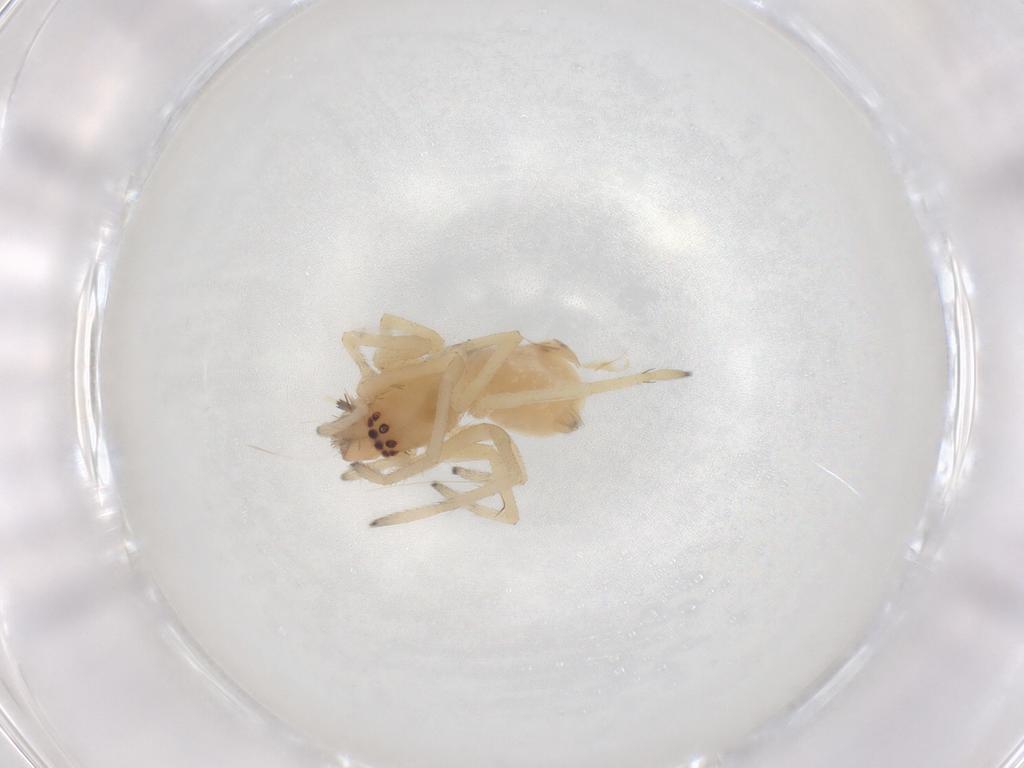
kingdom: Animalia
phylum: Arthropoda
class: Arachnida
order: Araneae
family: Cheiracanthiidae
